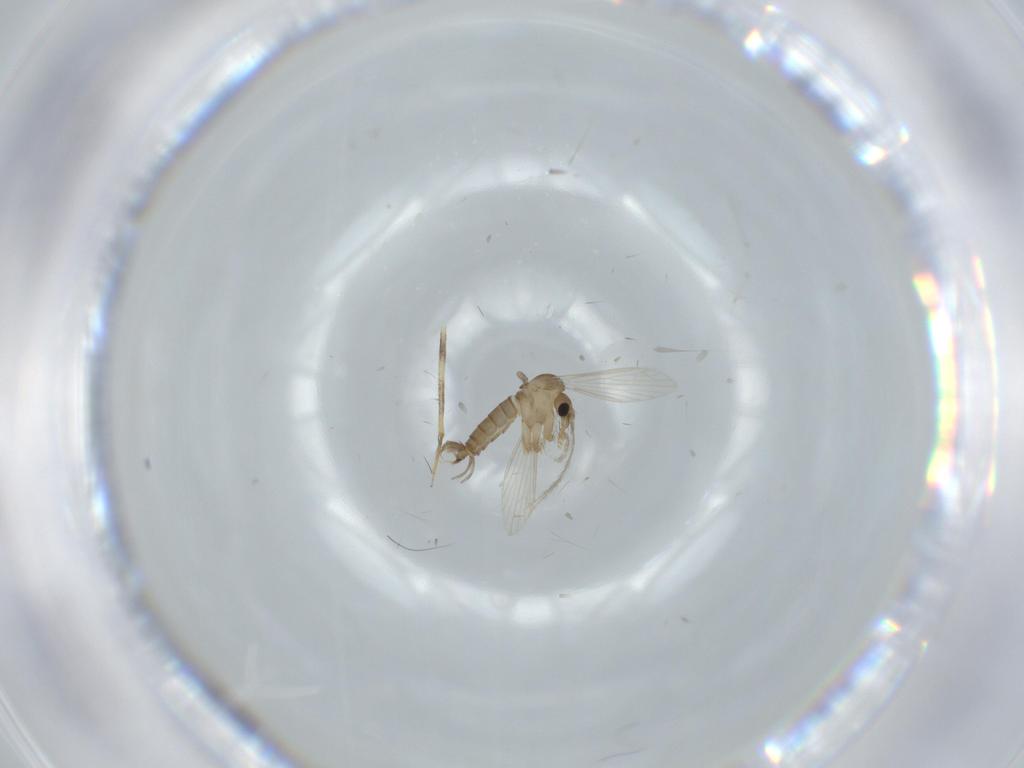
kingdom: Animalia
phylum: Arthropoda
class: Insecta
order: Diptera
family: Psychodidae
